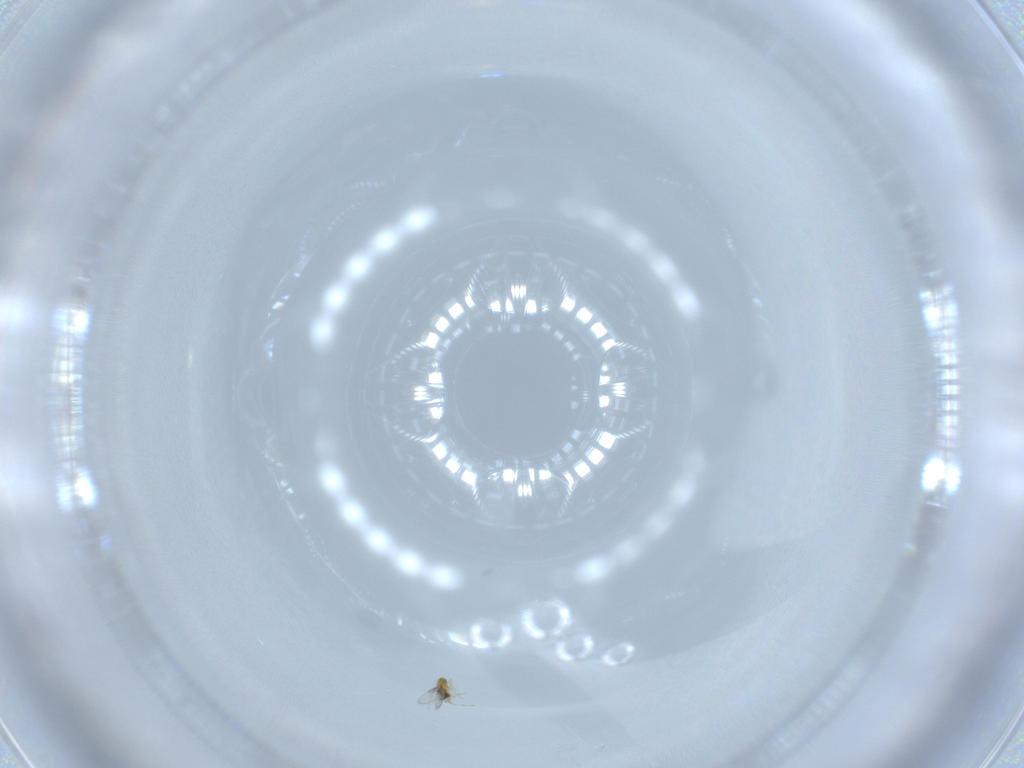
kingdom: Animalia
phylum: Arthropoda
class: Insecta
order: Hymenoptera
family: Trichogrammatidae
